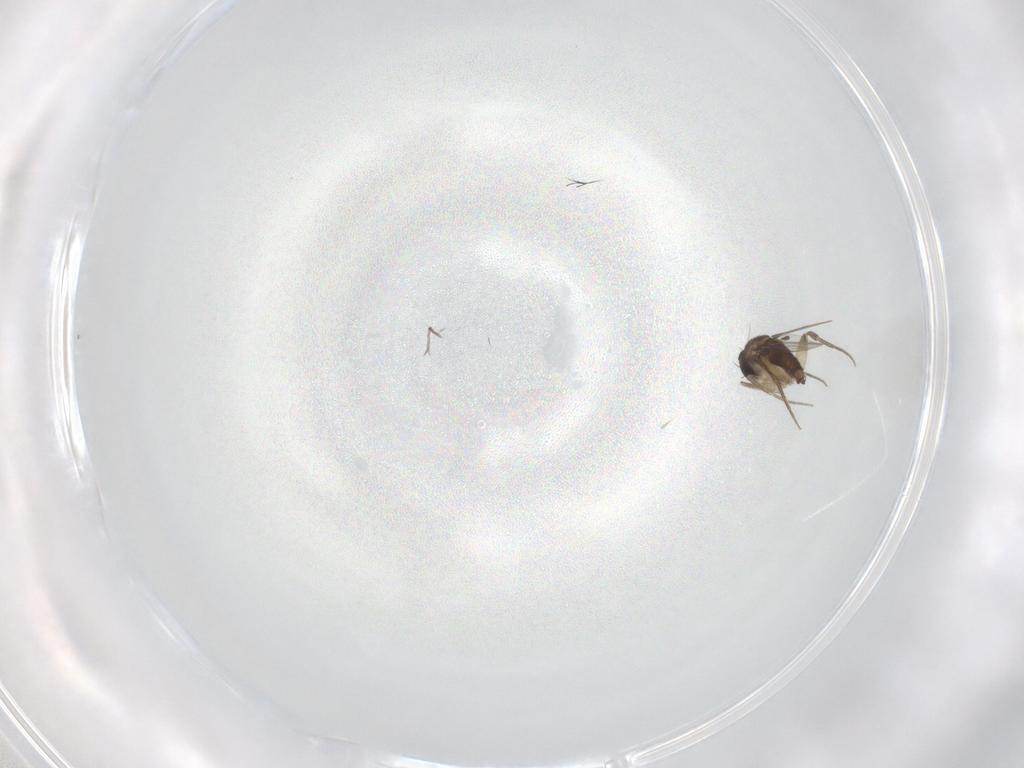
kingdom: Animalia
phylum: Arthropoda
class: Insecta
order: Diptera
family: Phoridae
